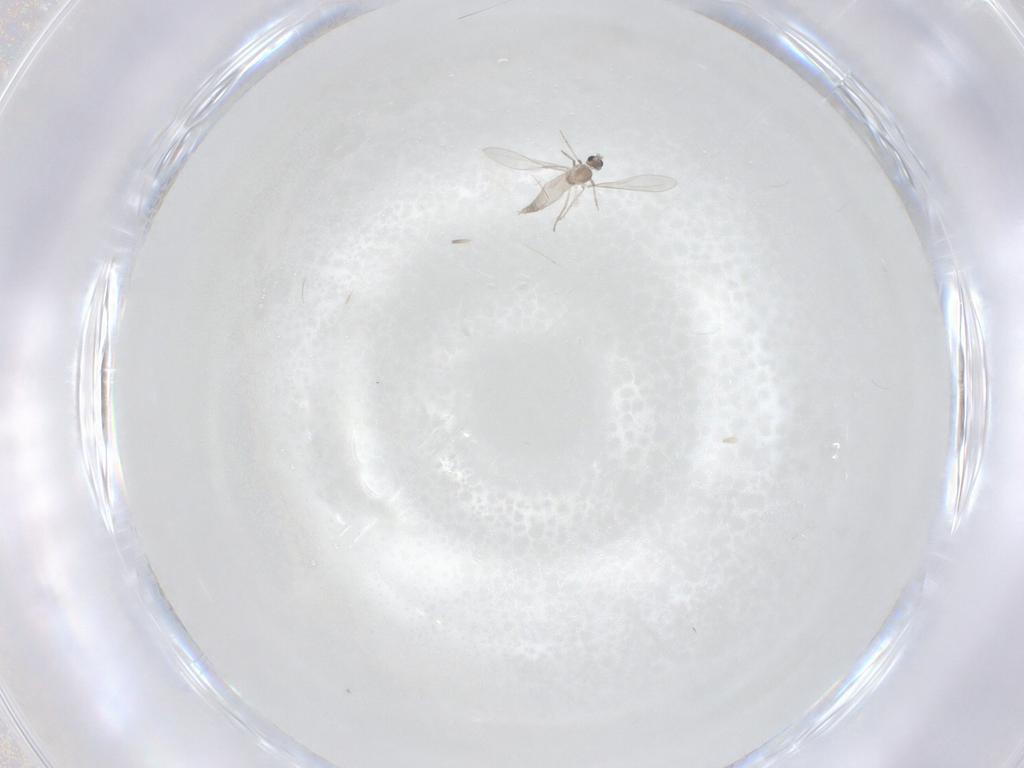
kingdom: Animalia
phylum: Arthropoda
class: Insecta
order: Diptera
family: Cecidomyiidae
